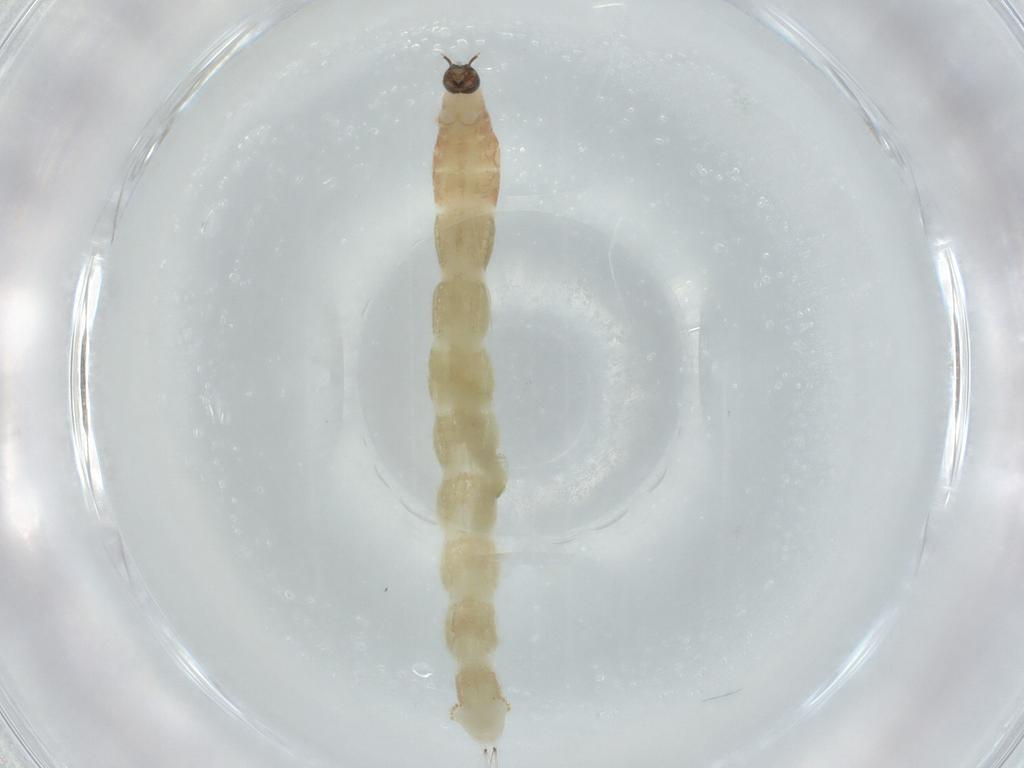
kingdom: Animalia
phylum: Arthropoda
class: Insecta
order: Diptera
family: Chironomidae
